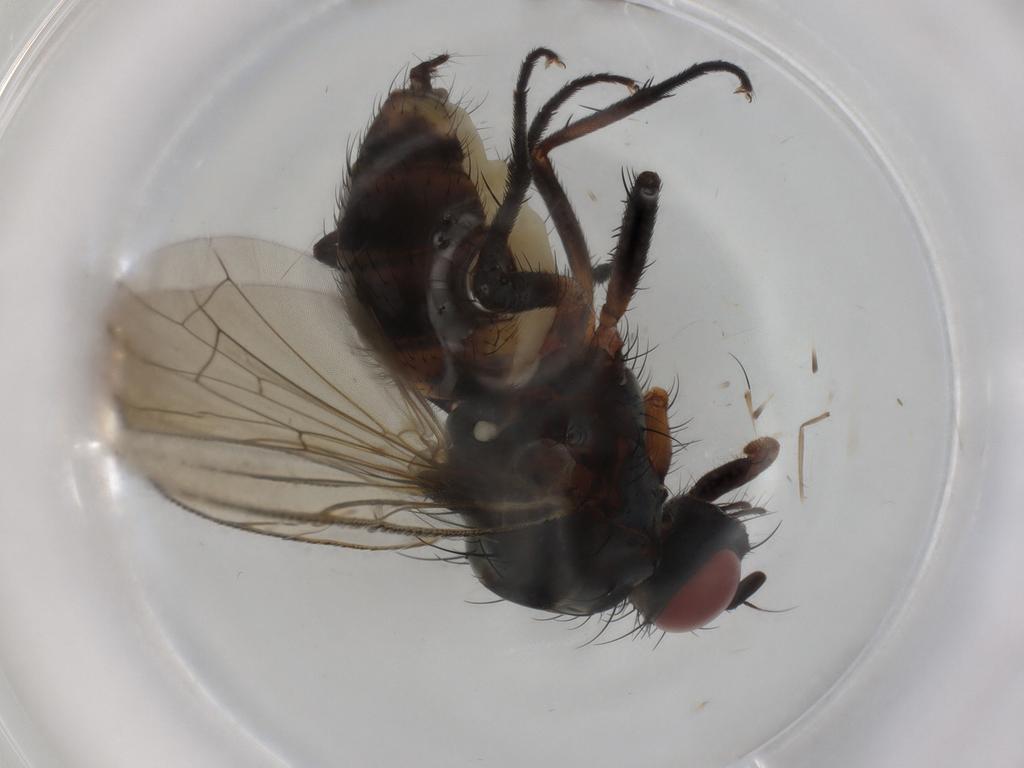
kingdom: Animalia
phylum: Arthropoda
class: Insecta
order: Diptera
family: Anthomyiidae
